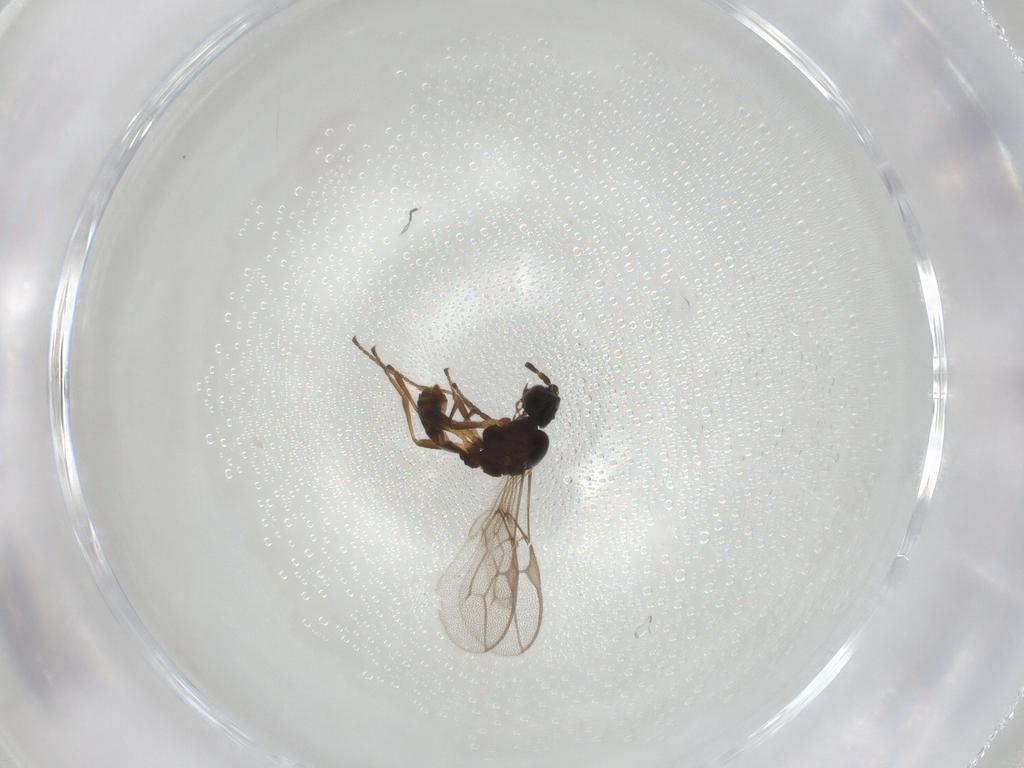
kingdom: Animalia
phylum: Arthropoda
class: Insecta
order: Hymenoptera
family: Braconidae
